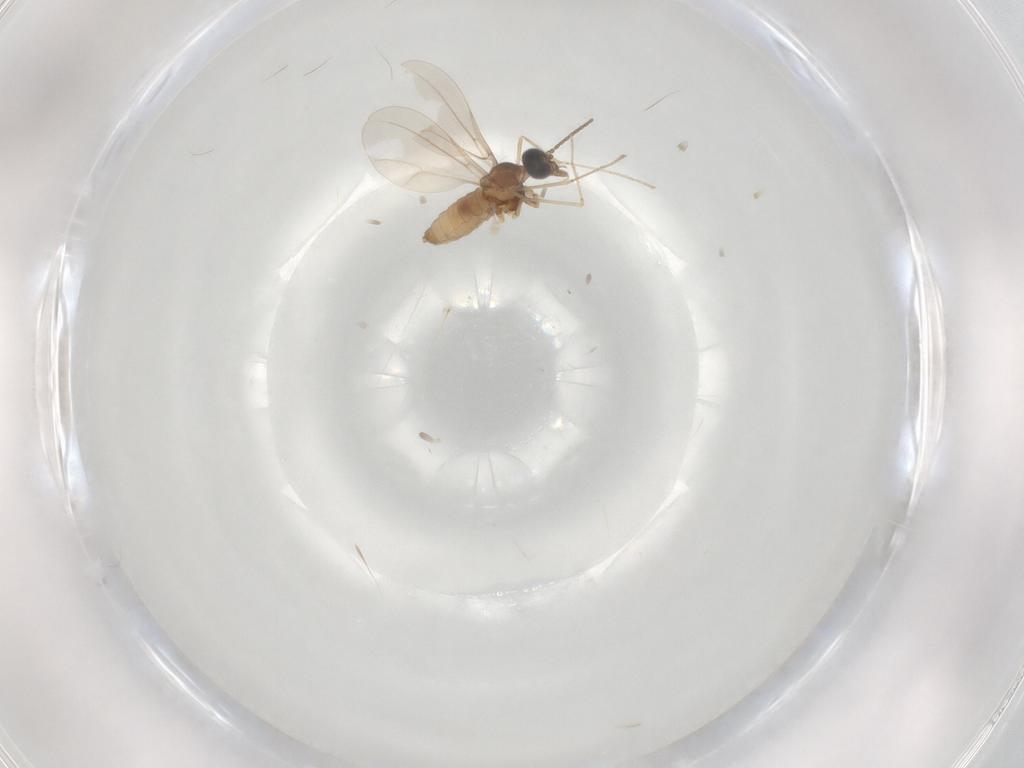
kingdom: Animalia
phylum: Arthropoda
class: Insecta
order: Diptera
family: Cecidomyiidae
